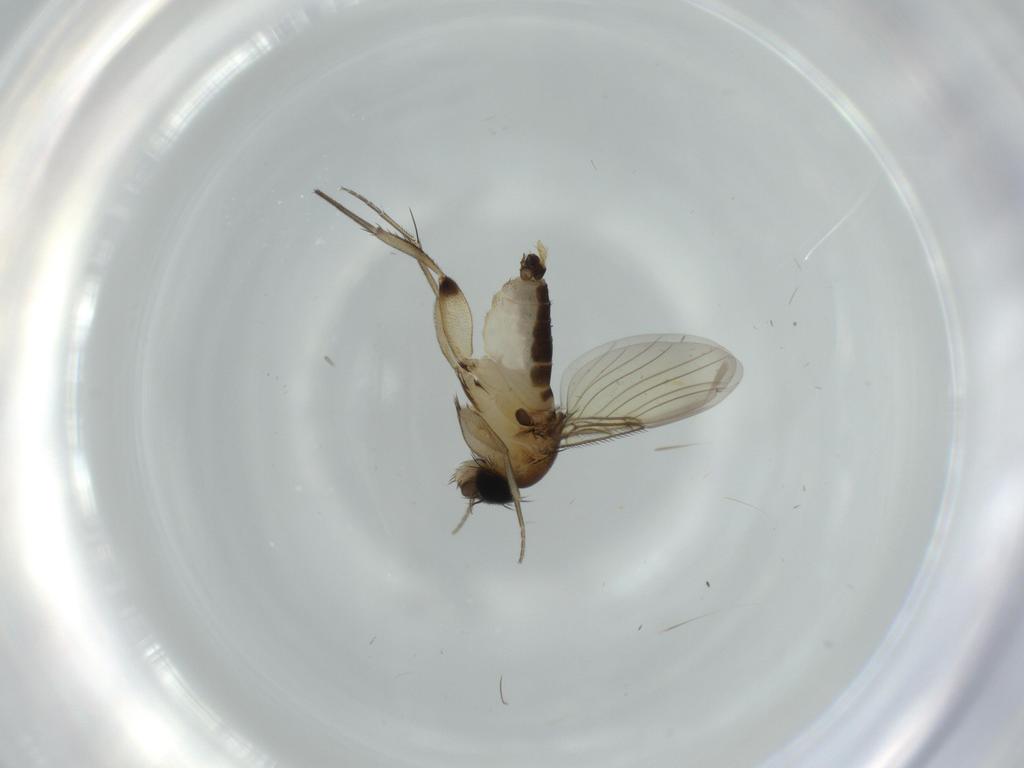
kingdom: Animalia
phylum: Arthropoda
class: Insecta
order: Diptera
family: Phoridae
